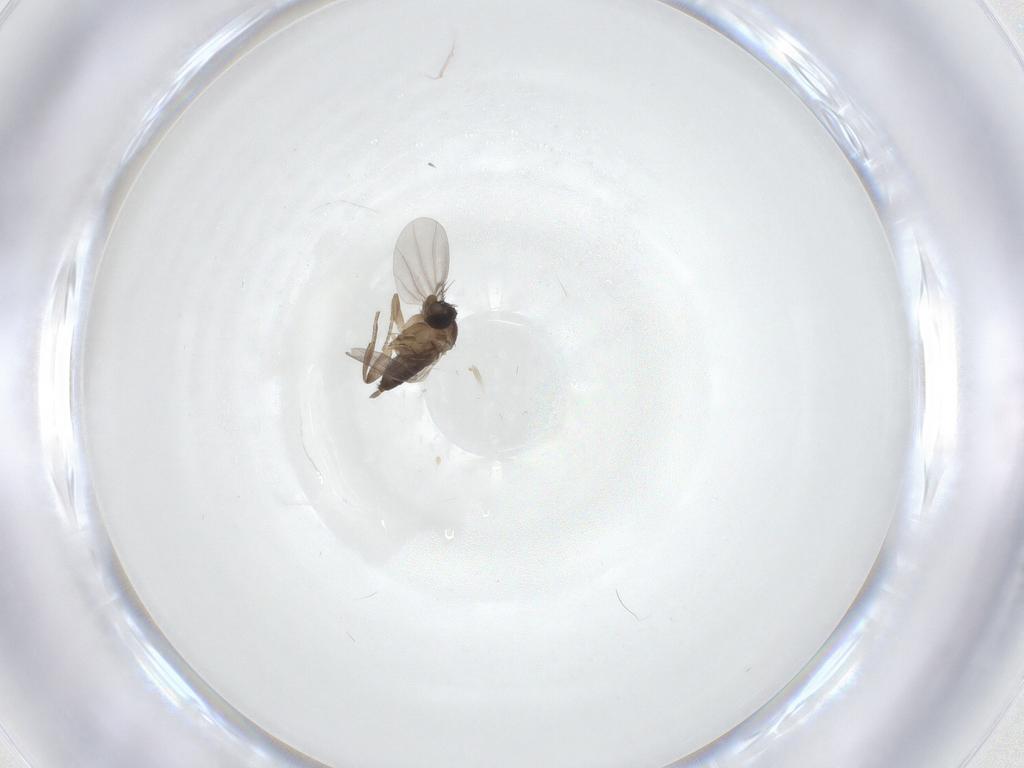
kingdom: Animalia
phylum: Arthropoda
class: Insecta
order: Diptera
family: Phoridae
